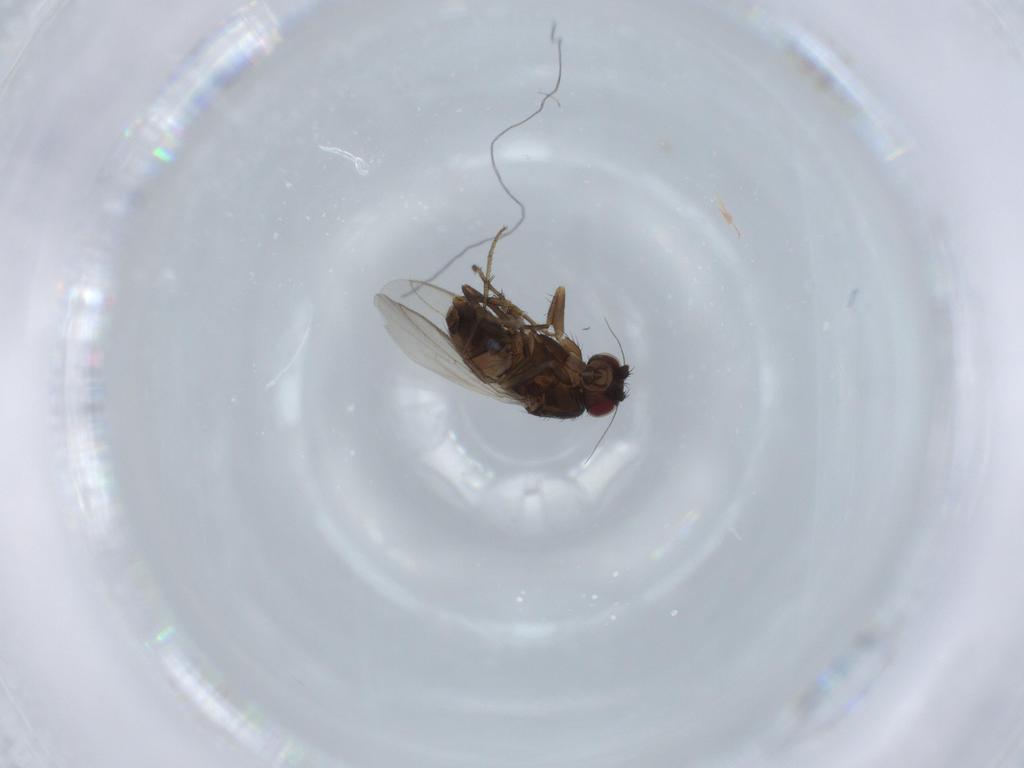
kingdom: Animalia
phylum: Arthropoda
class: Insecta
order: Diptera
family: Sphaeroceridae
